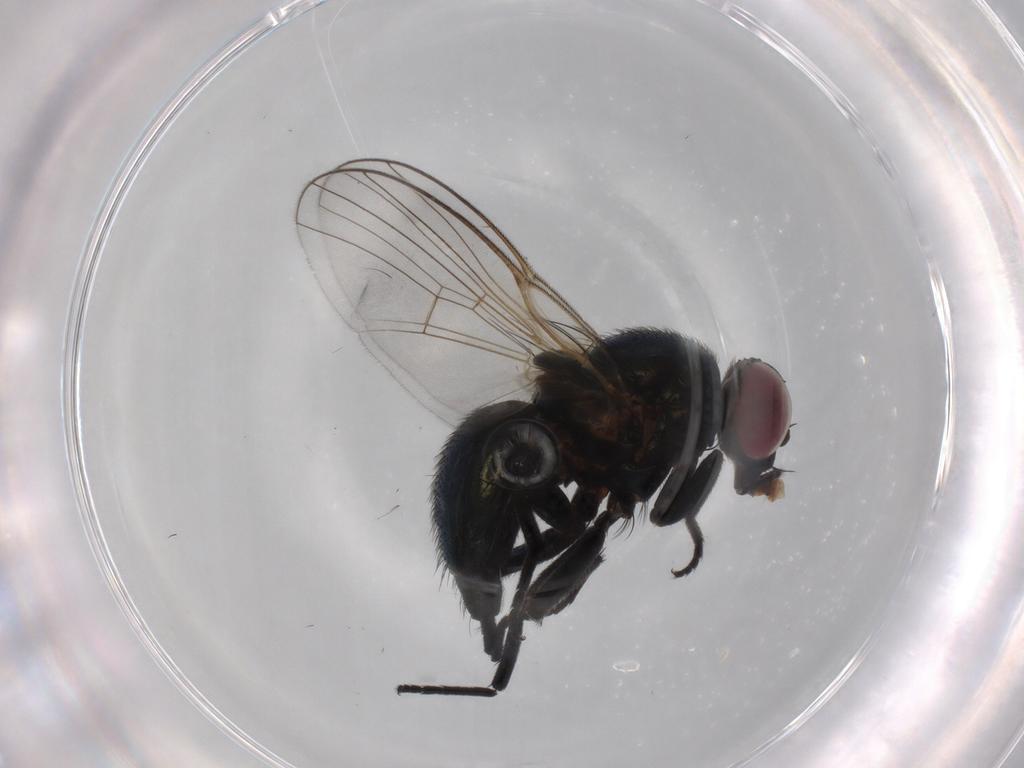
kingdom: Animalia
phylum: Arthropoda
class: Insecta
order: Diptera
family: Agromyzidae
